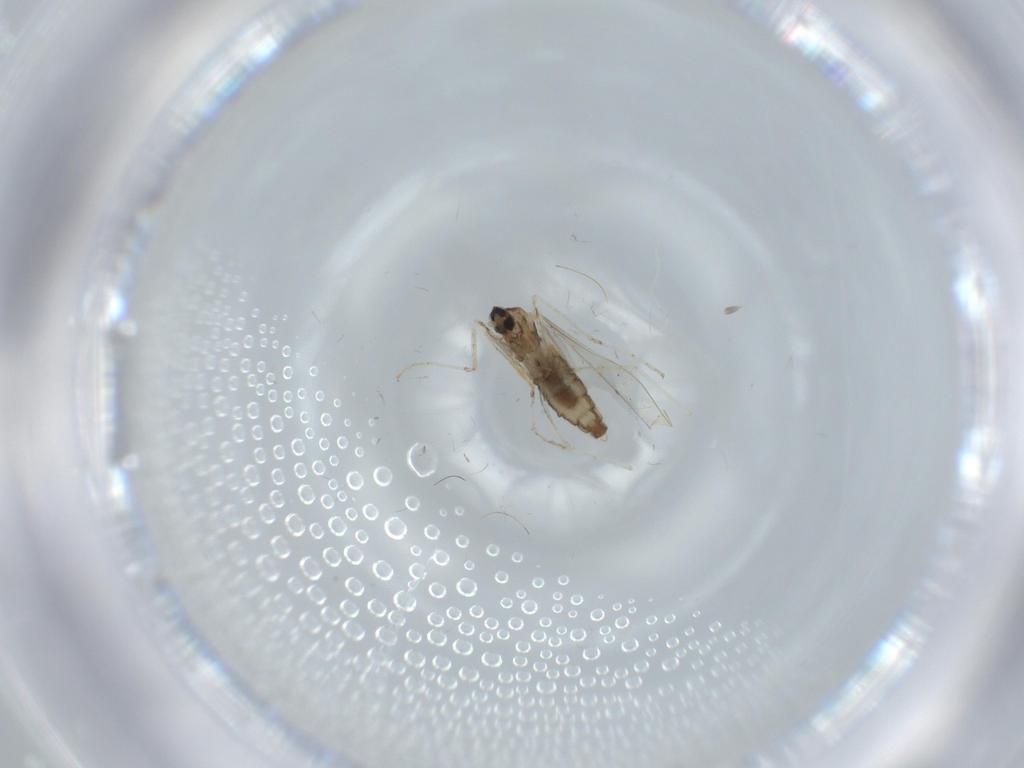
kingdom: Animalia
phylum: Arthropoda
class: Insecta
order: Diptera
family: Cecidomyiidae
